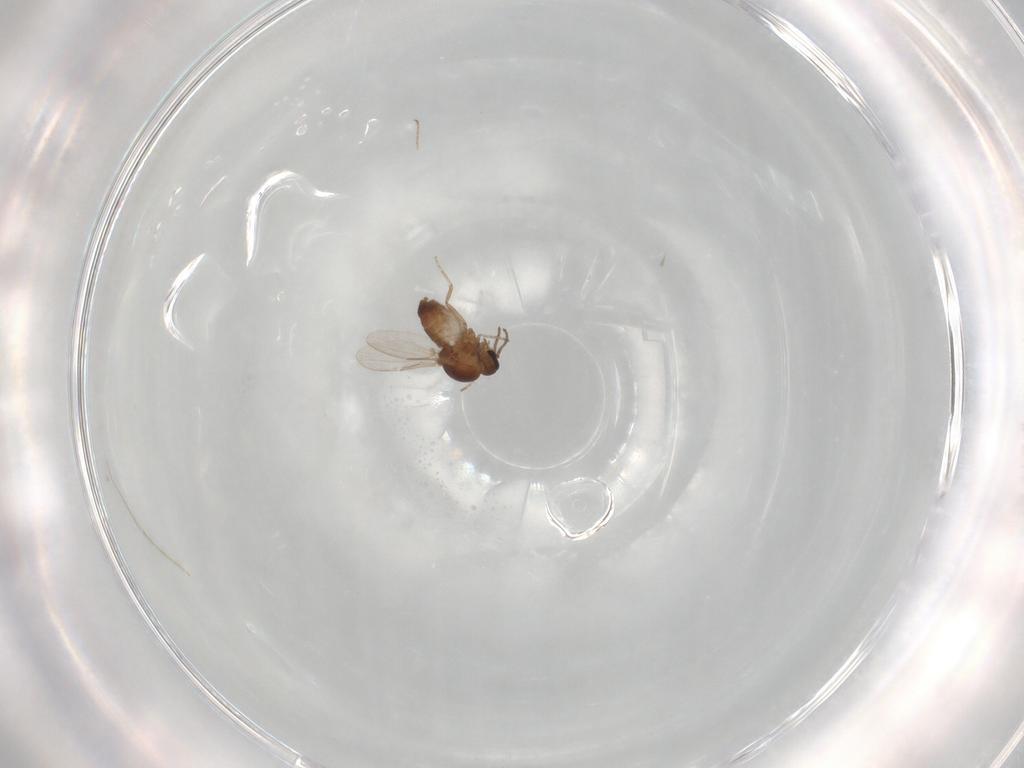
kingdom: Animalia
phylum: Arthropoda
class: Insecta
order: Diptera
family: Ceratopogonidae
